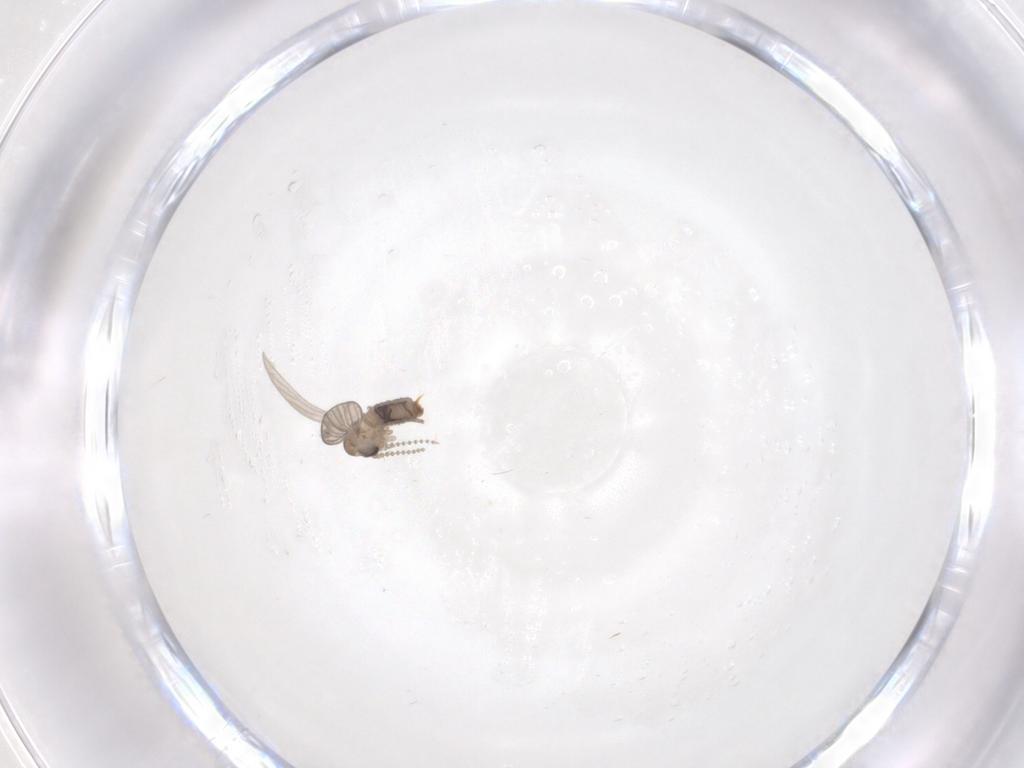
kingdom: Animalia
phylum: Arthropoda
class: Insecta
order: Diptera
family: Psychodidae
